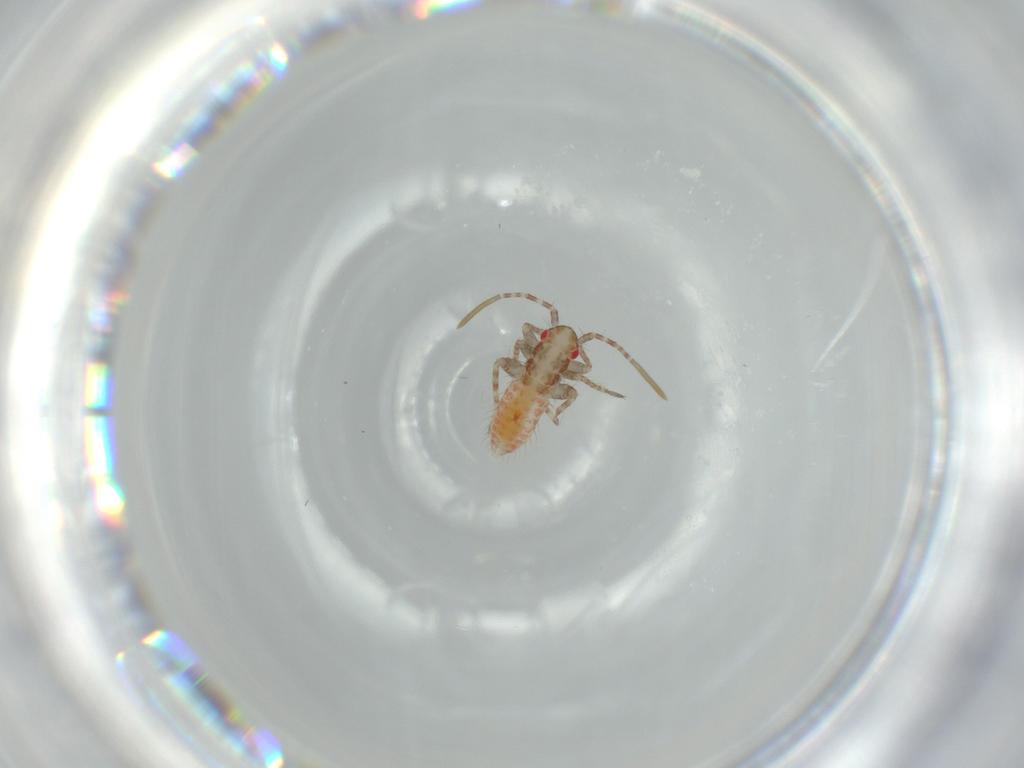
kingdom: Animalia
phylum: Arthropoda
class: Insecta
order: Hemiptera
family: Miridae
